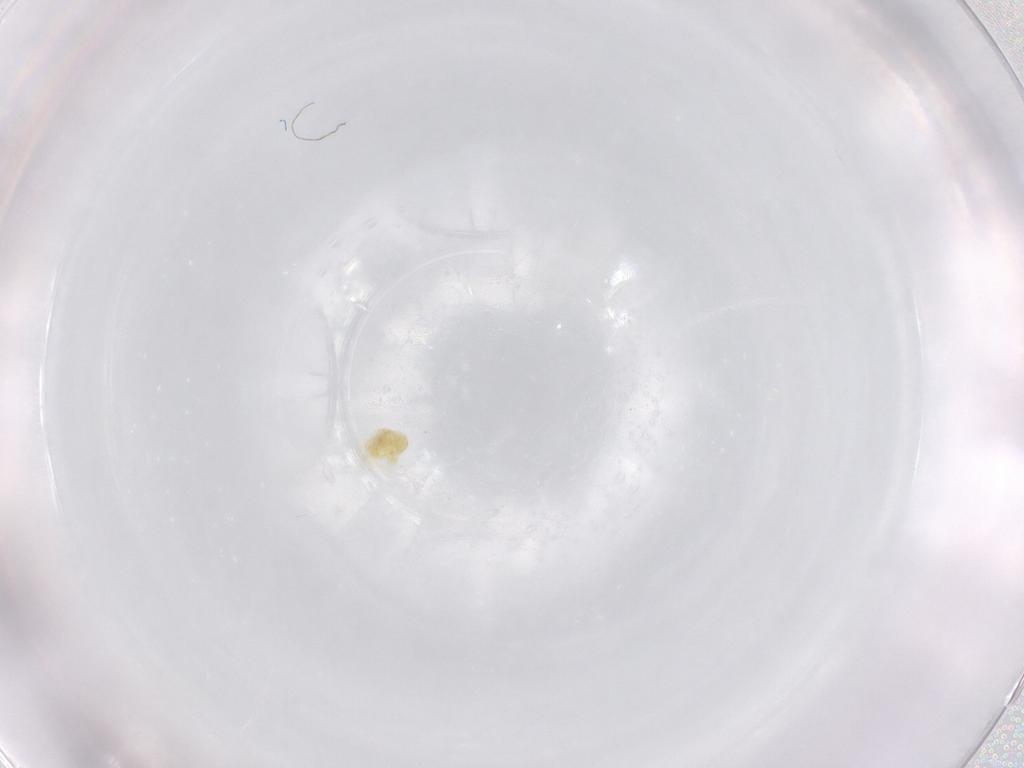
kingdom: Animalia
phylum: Arthropoda
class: Arachnida
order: Trombidiformes
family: Eupodidae
